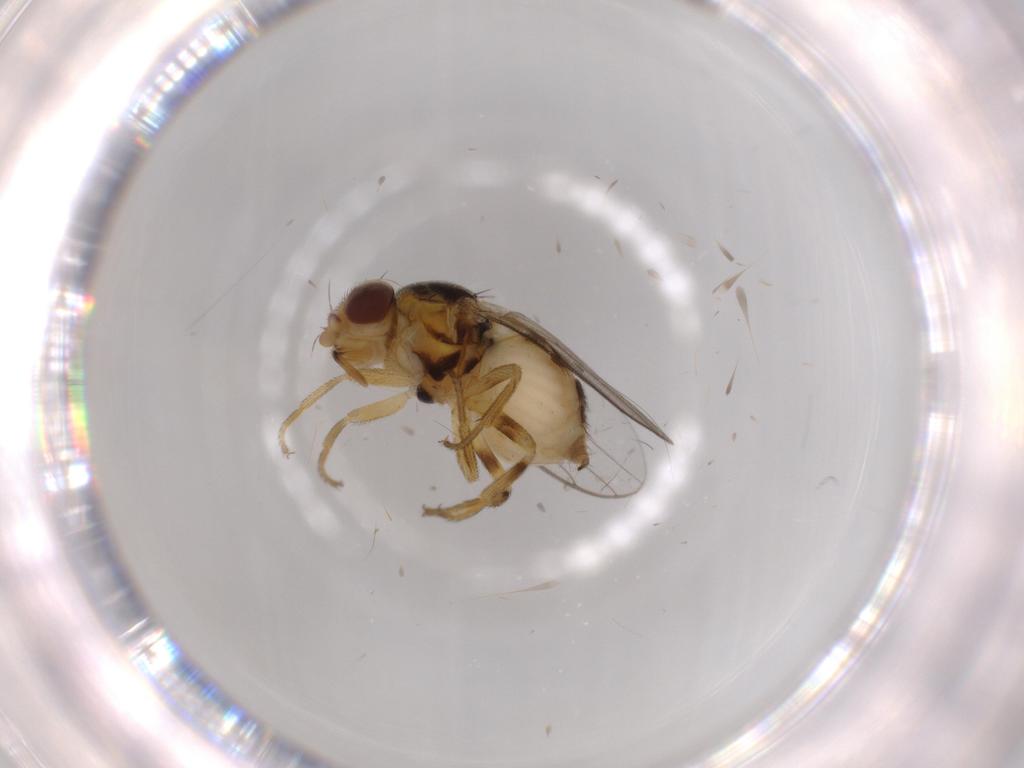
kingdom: Animalia
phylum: Arthropoda
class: Insecta
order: Diptera
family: Chloropidae
